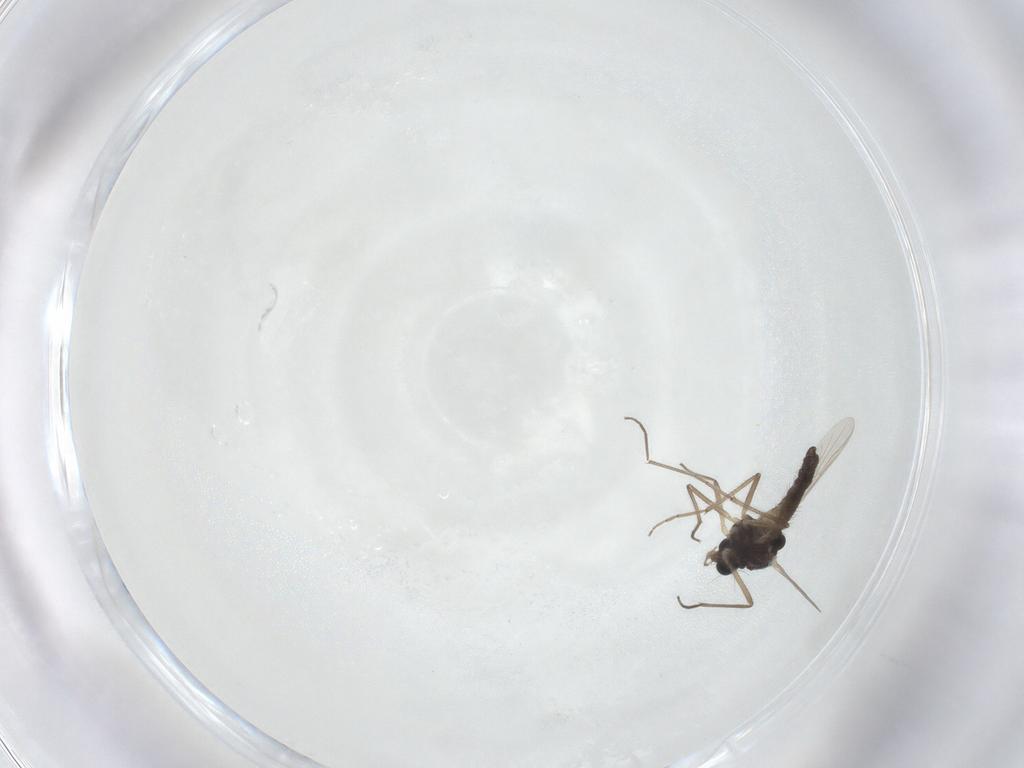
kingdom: Animalia
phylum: Arthropoda
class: Insecta
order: Diptera
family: Chironomidae
